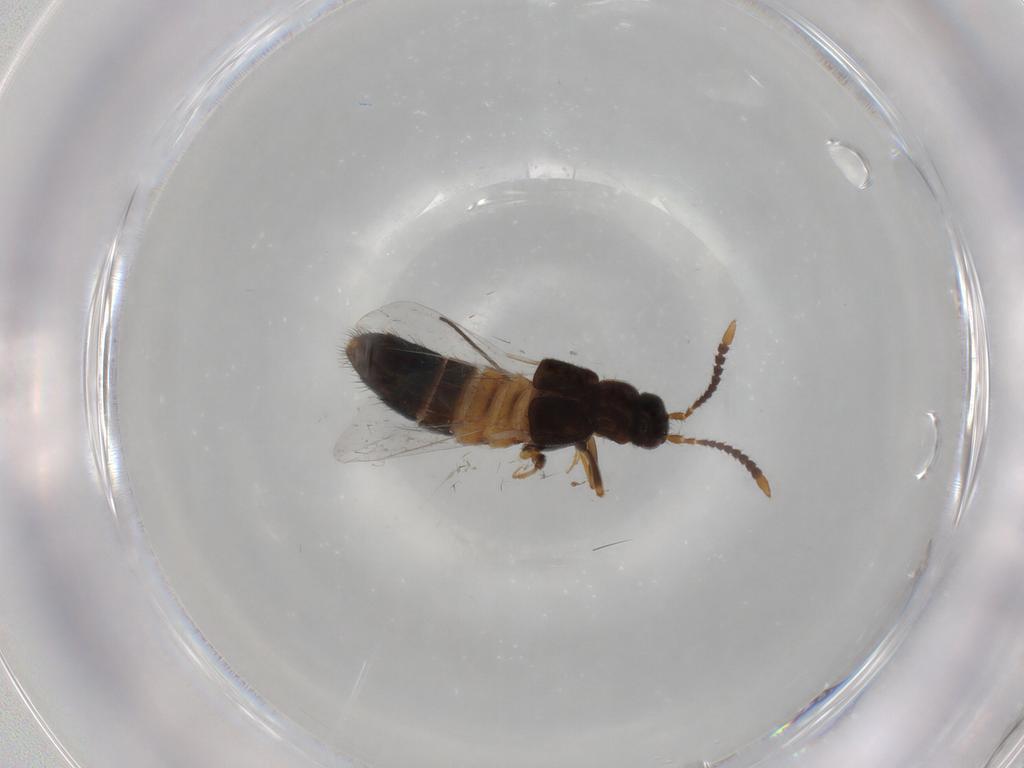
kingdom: Animalia
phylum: Arthropoda
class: Insecta
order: Coleoptera
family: Staphylinidae
